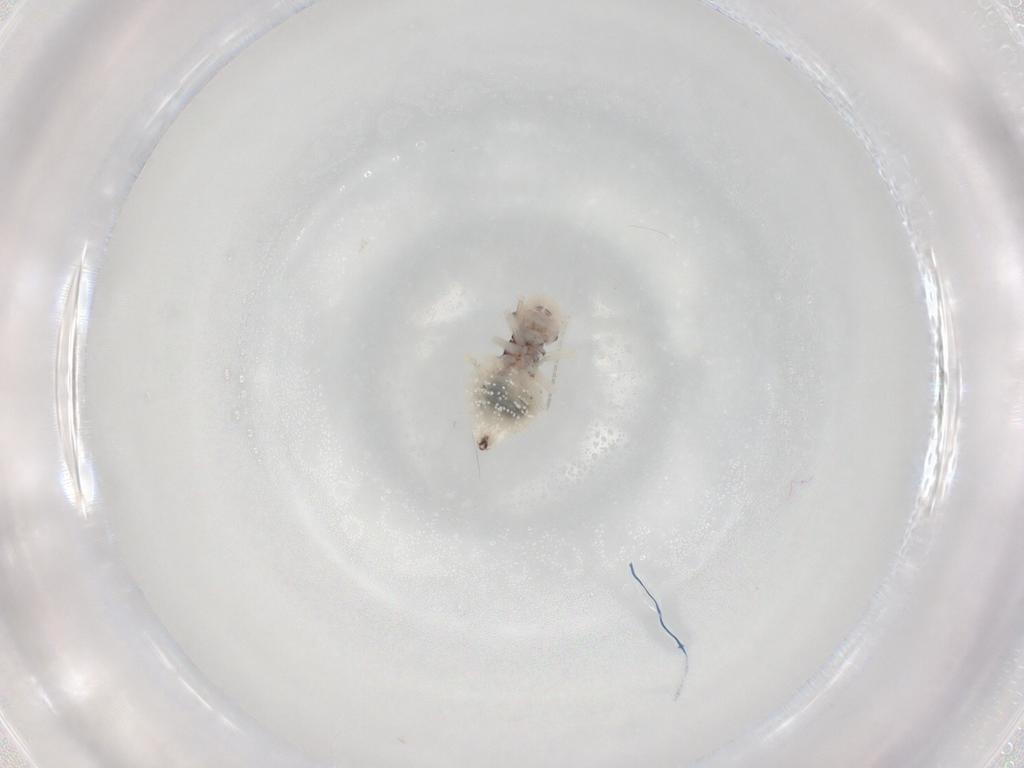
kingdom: Animalia
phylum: Arthropoda
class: Insecta
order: Psocodea
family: Amphipsocidae
